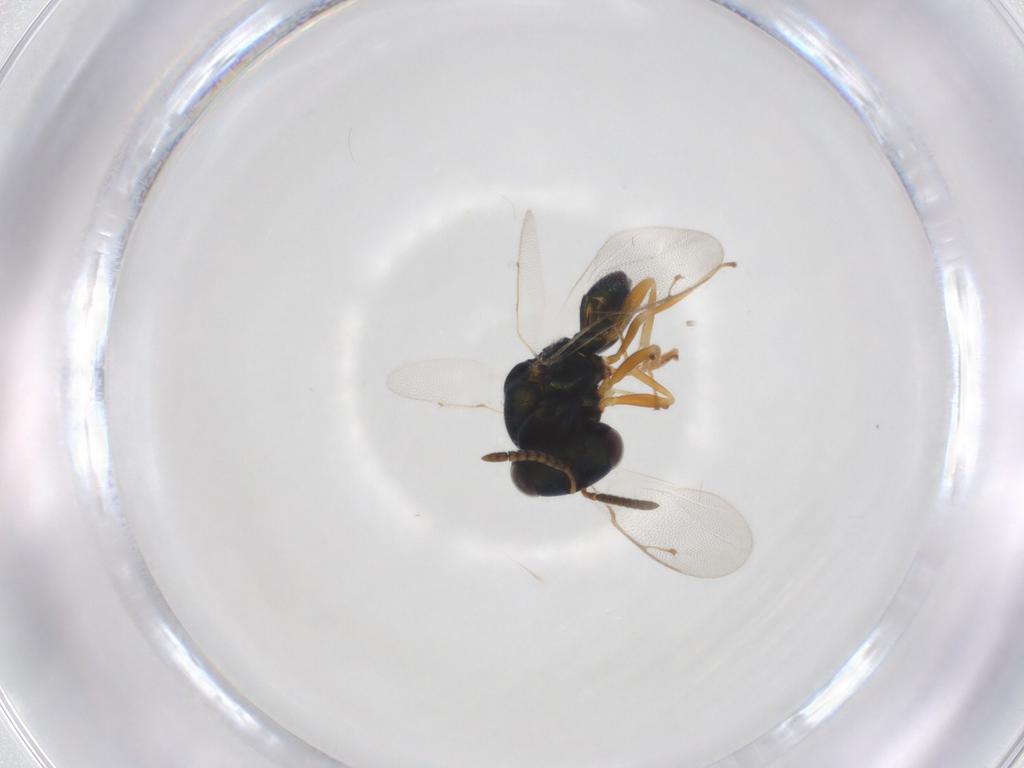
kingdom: Animalia
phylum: Arthropoda
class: Insecta
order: Hymenoptera
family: Pteromalidae
